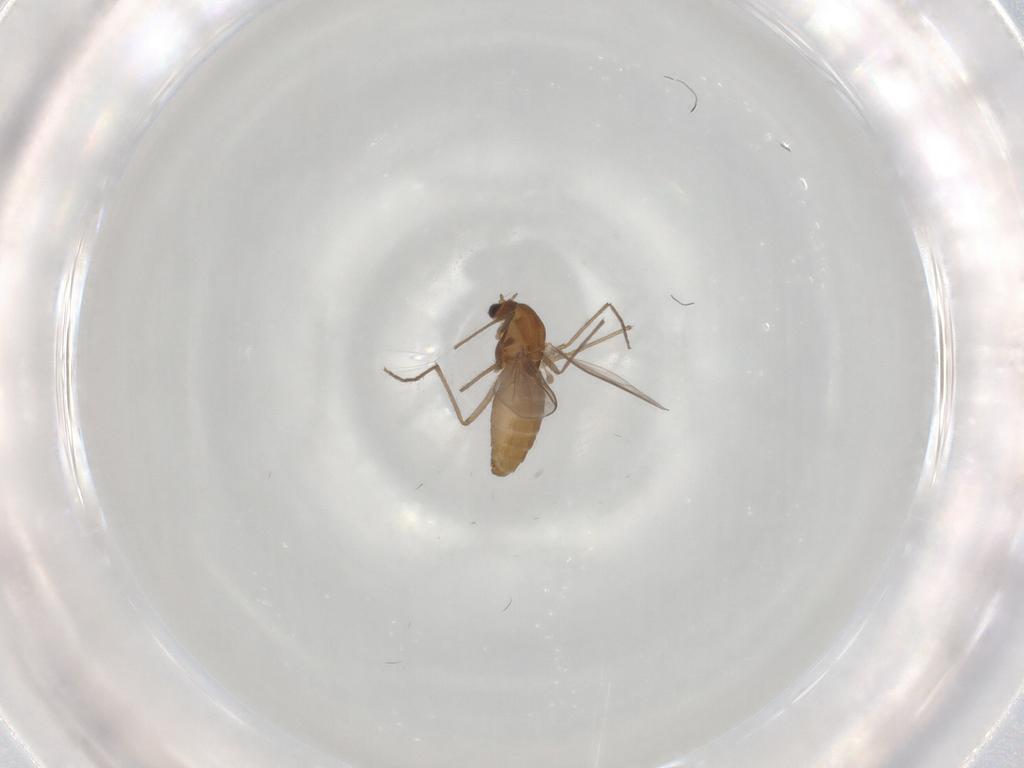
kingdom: Animalia
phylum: Arthropoda
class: Insecta
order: Diptera
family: Chironomidae
